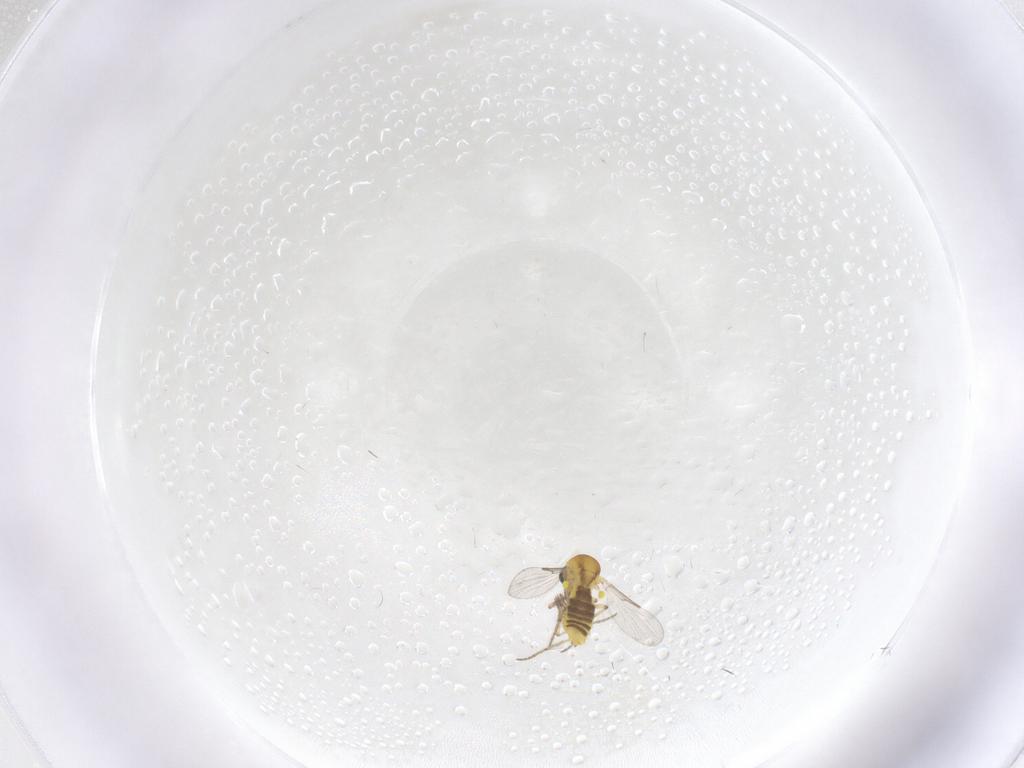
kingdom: Animalia
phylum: Arthropoda
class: Insecta
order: Diptera
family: Ceratopogonidae
